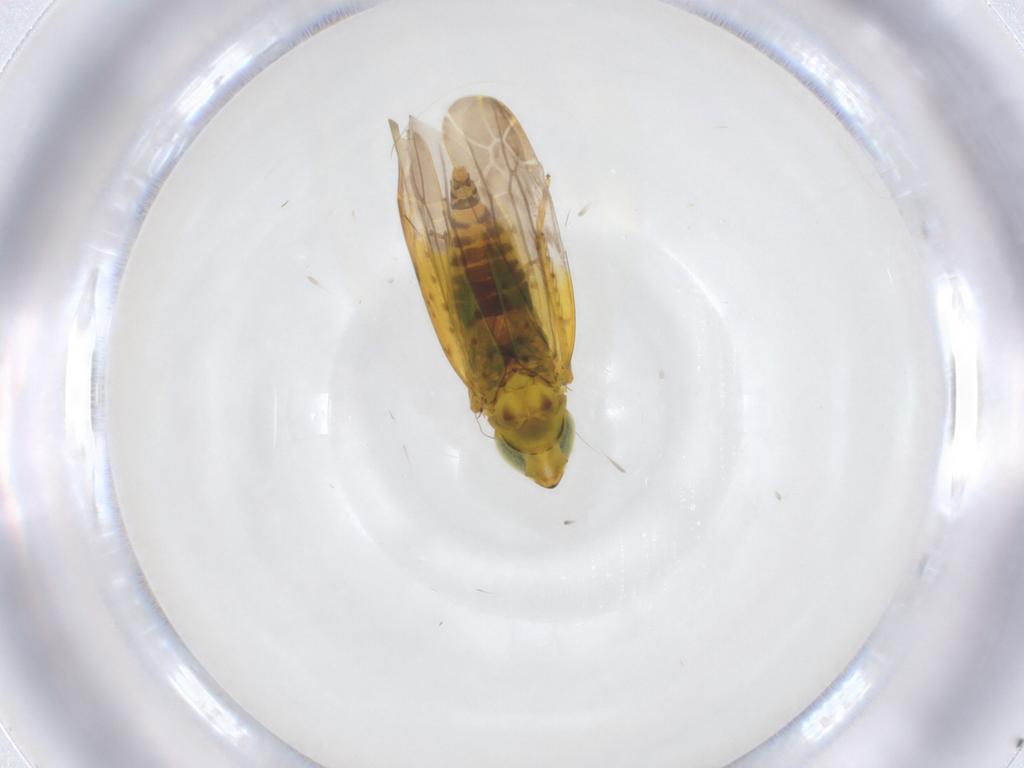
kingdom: Animalia
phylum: Arthropoda
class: Insecta
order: Hemiptera
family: Cicadellidae
